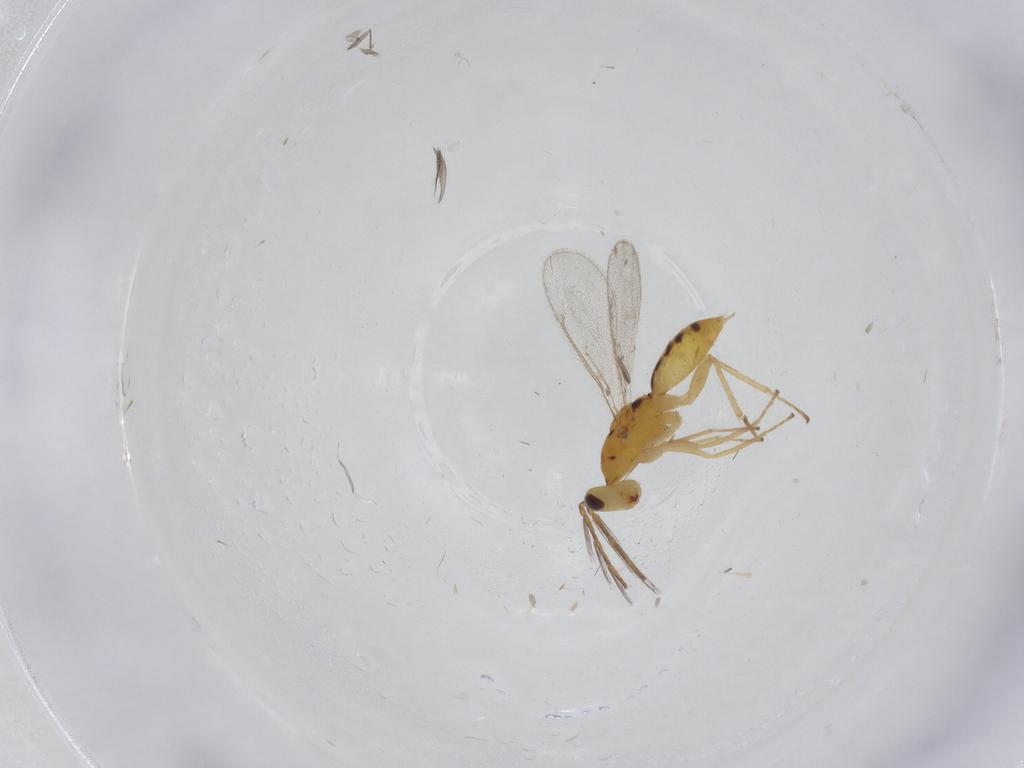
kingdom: Animalia
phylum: Arthropoda
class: Insecta
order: Hymenoptera
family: Eulophidae
